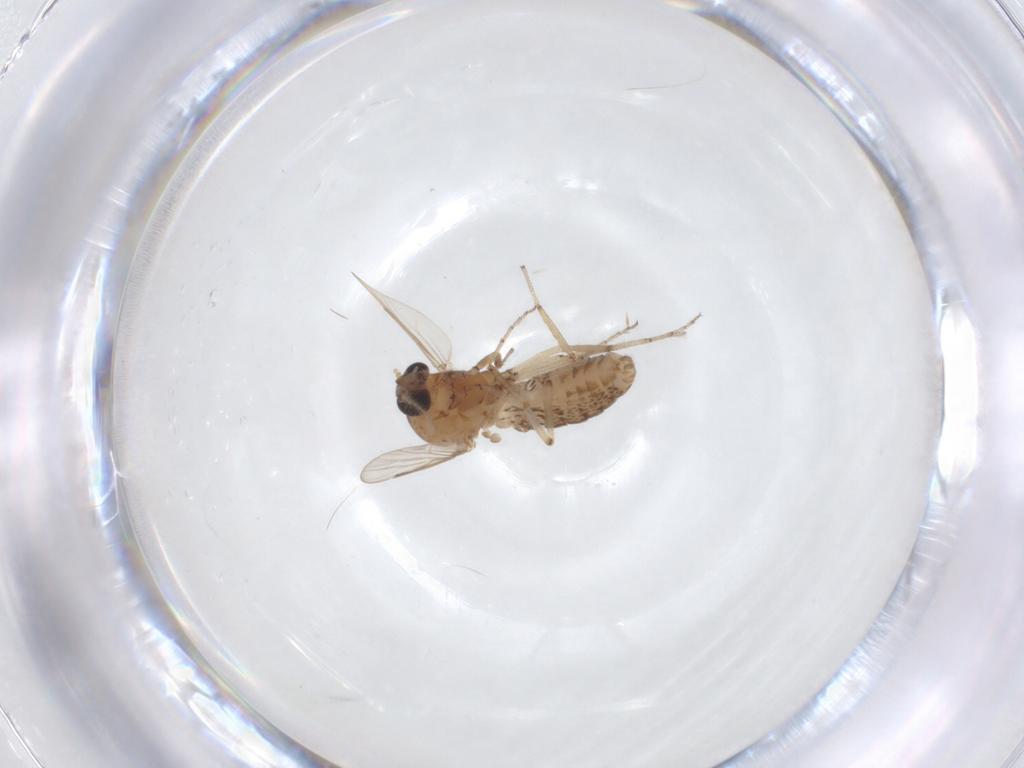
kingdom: Animalia
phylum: Arthropoda
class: Insecta
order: Diptera
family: Ceratopogonidae
